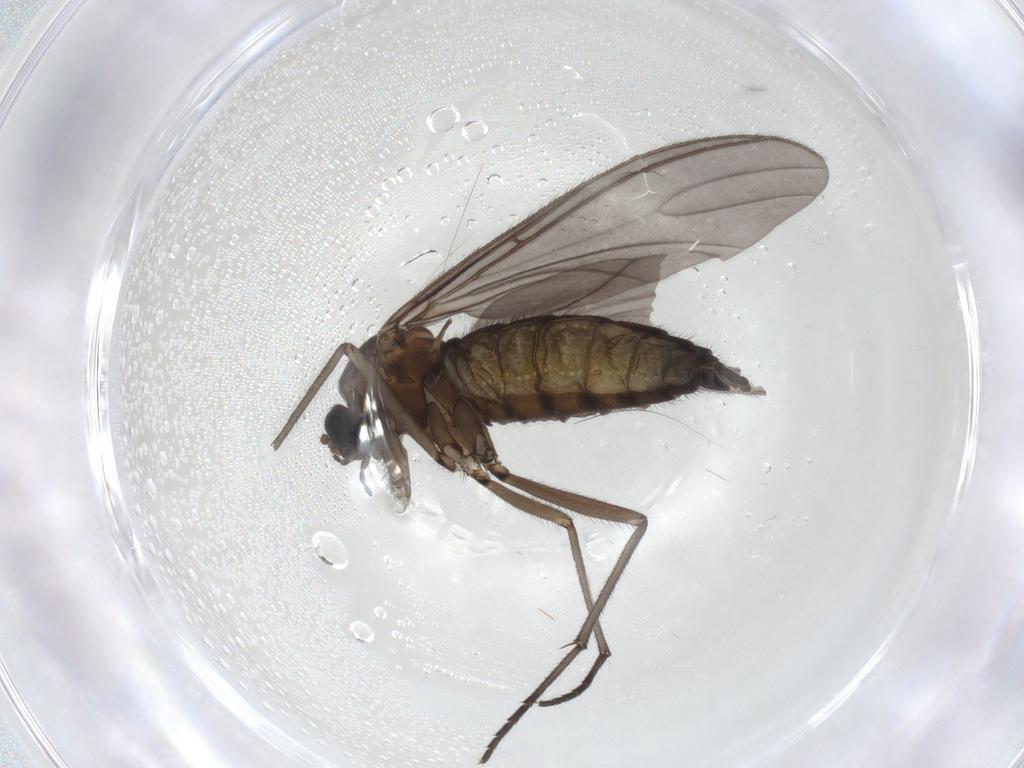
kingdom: Animalia
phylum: Arthropoda
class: Insecta
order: Diptera
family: Sciaridae
